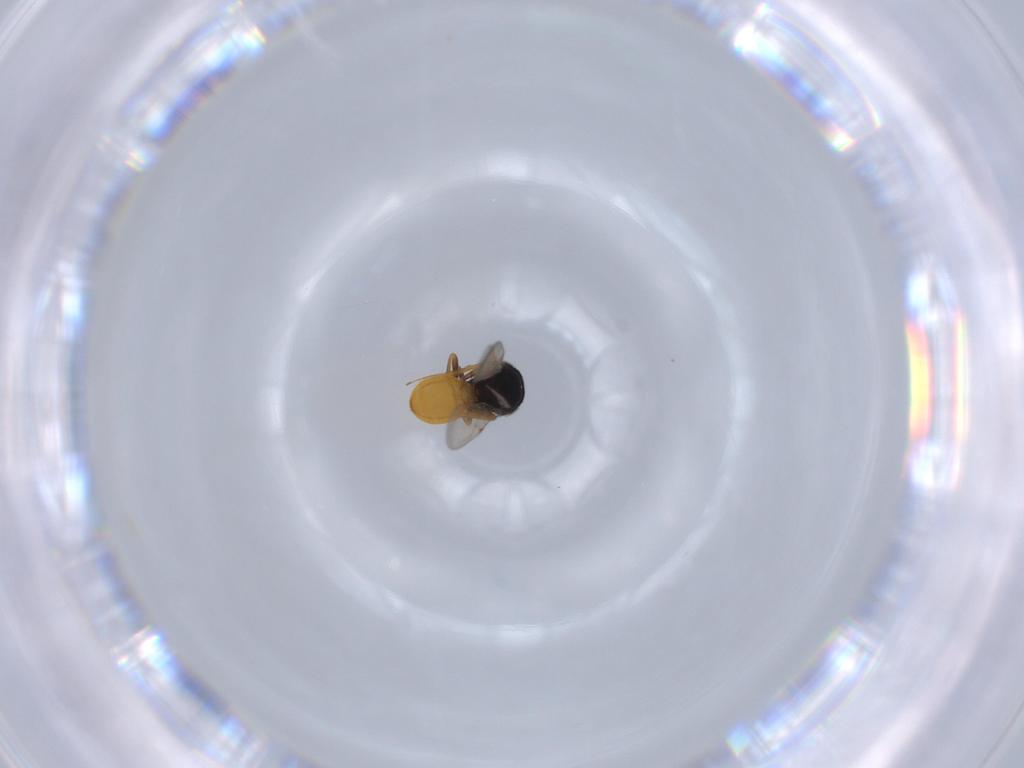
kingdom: Animalia
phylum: Arthropoda
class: Insecta
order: Hymenoptera
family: Scelionidae
